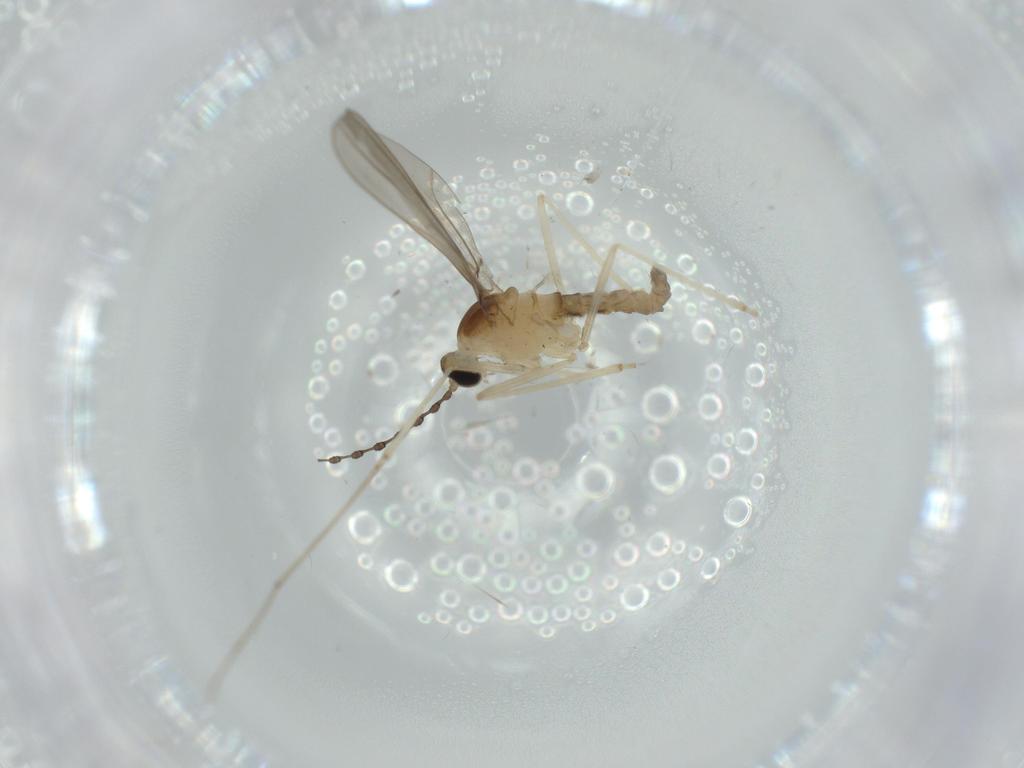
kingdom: Animalia
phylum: Arthropoda
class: Insecta
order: Diptera
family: Cecidomyiidae
